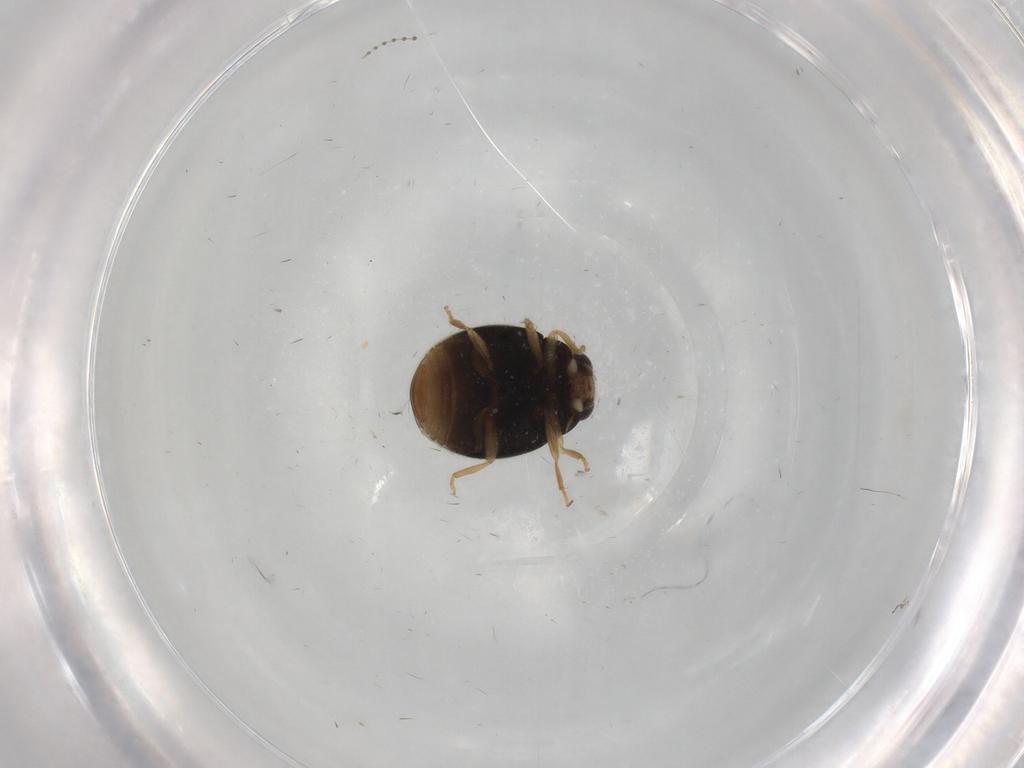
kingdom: Animalia
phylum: Arthropoda
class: Insecta
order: Coleoptera
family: Coccinellidae
